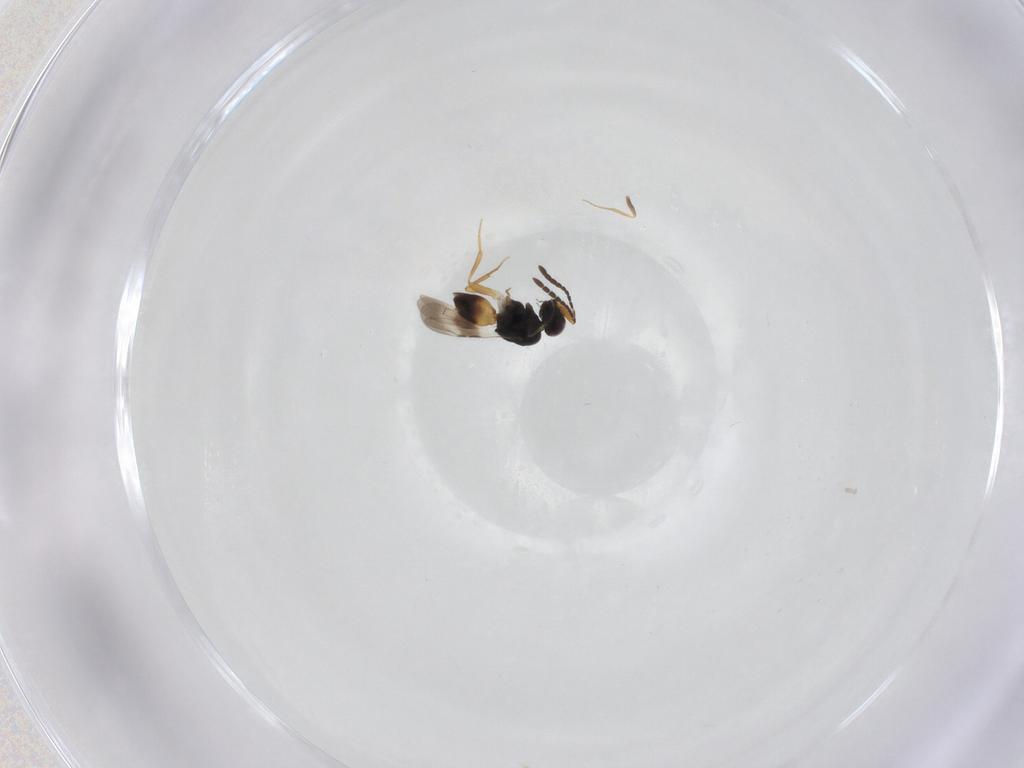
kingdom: Animalia
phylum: Arthropoda
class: Insecta
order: Hymenoptera
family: Ceraphronidae
